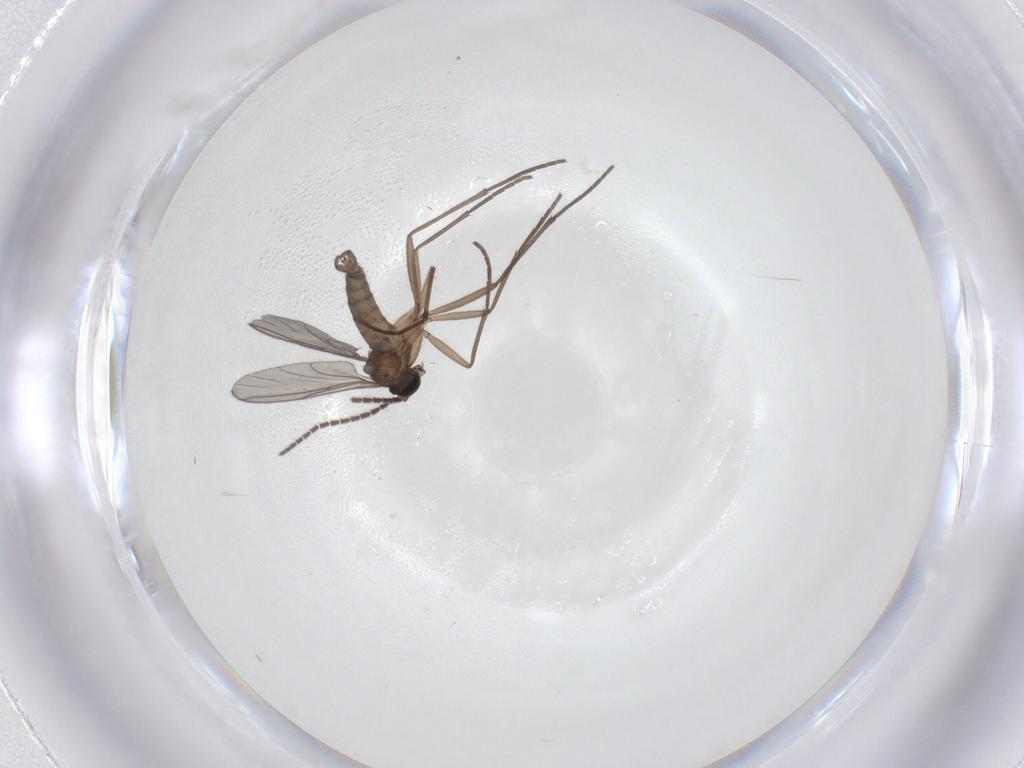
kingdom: Animalia
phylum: Arthropoda
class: Insecta
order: Diptera
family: Sciaridae
